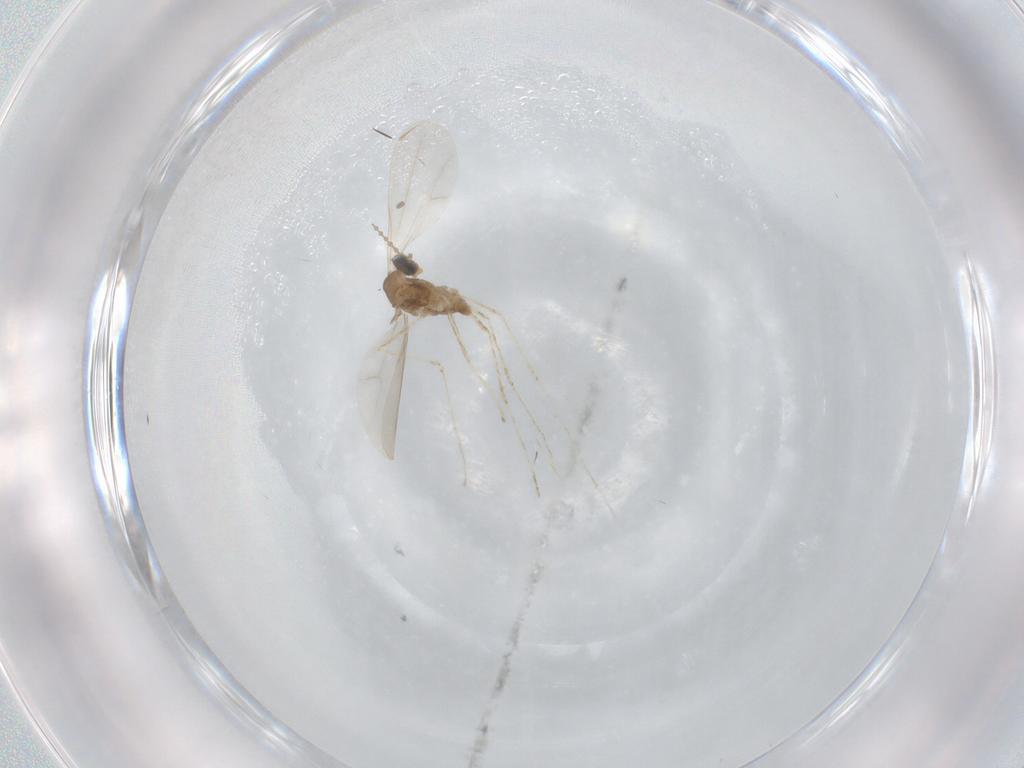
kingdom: Animalia
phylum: Arthropoda
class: Insecta
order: Diptera
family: Cecidomyiidae
